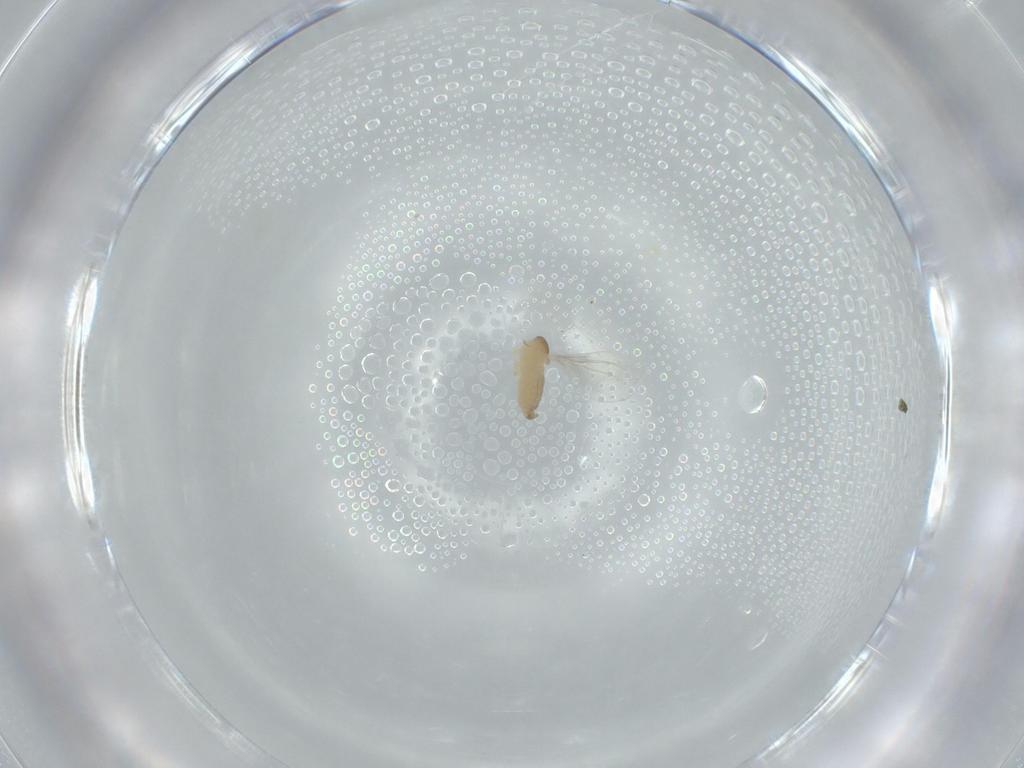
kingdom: Animalia
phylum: Arthropoda
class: Insecta
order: Diptera
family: Cecidomyiidae
